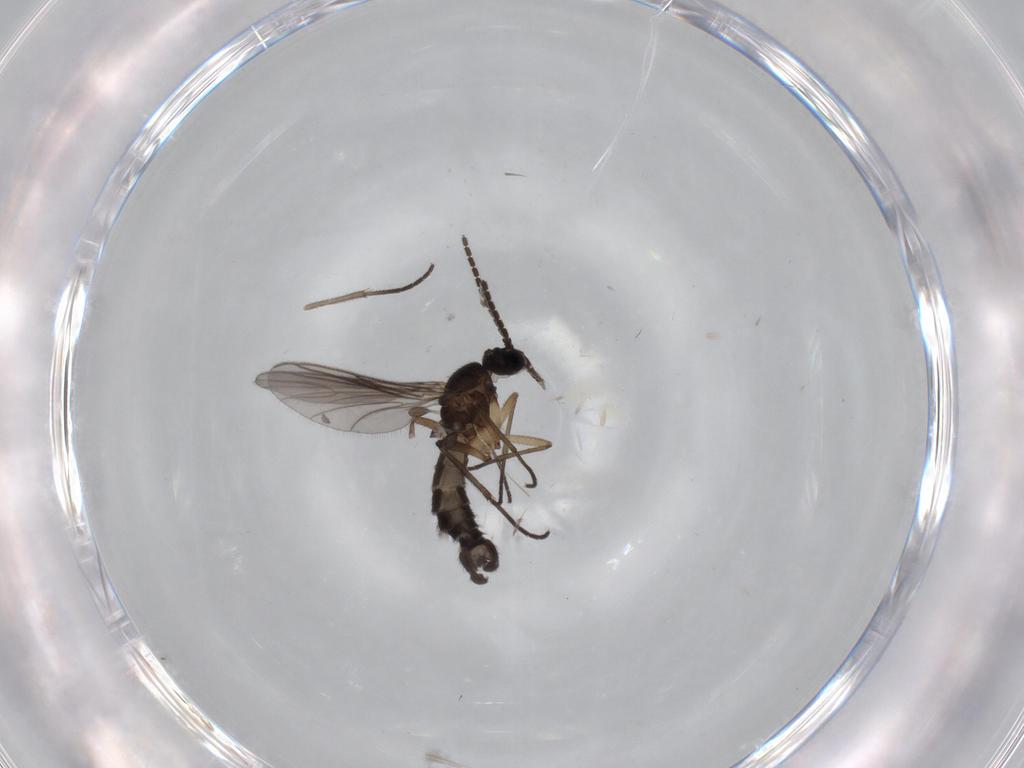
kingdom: Animalia
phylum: Arthropoda
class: Insecta
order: Diptera
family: Sciaridae
